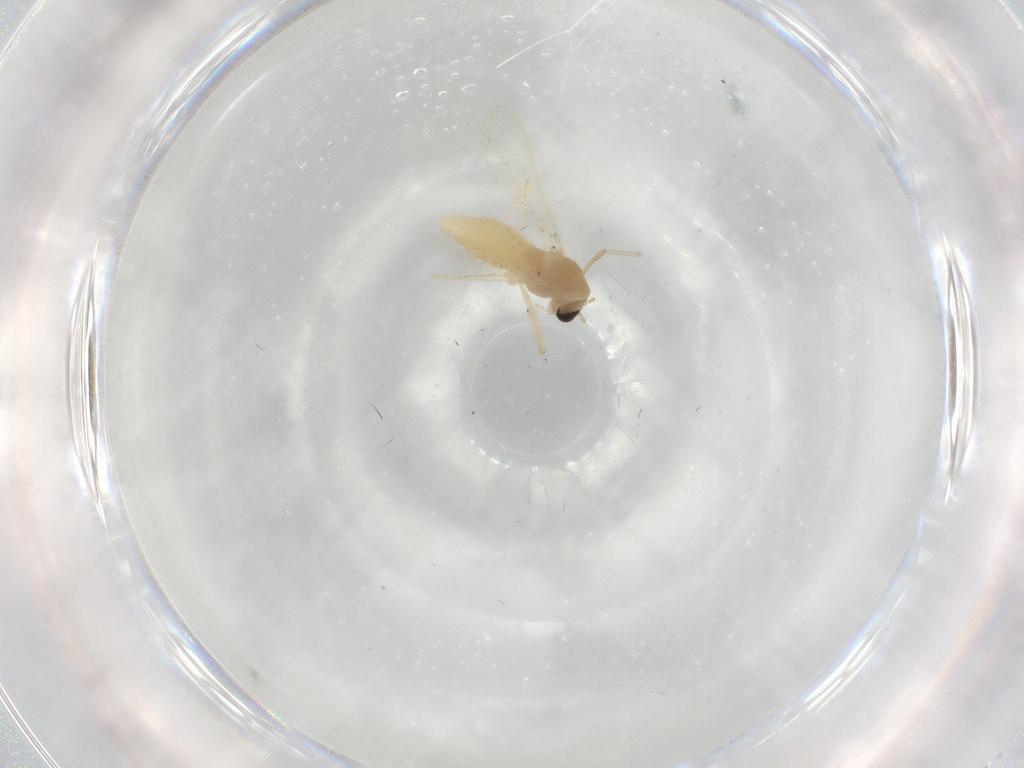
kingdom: Animalia
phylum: Arthropoda
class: Insecta
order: Diptera
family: Chironomidae
